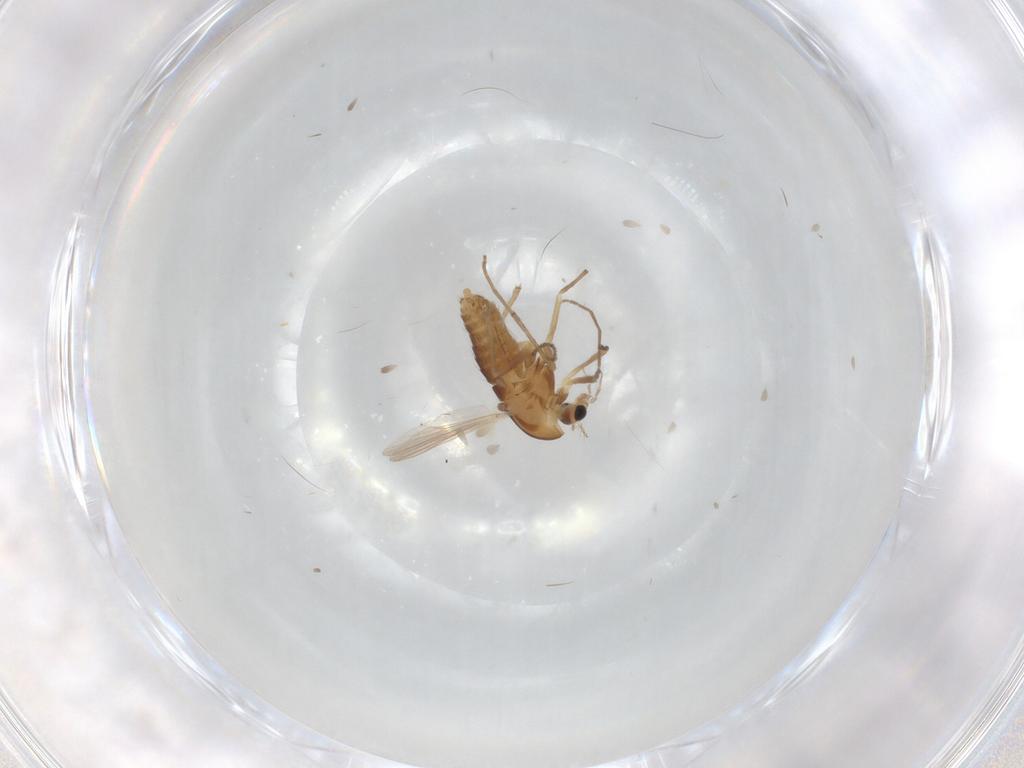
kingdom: Animalia
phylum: Arthropoda
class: Insecta
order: Diptera
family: Chironomidae
